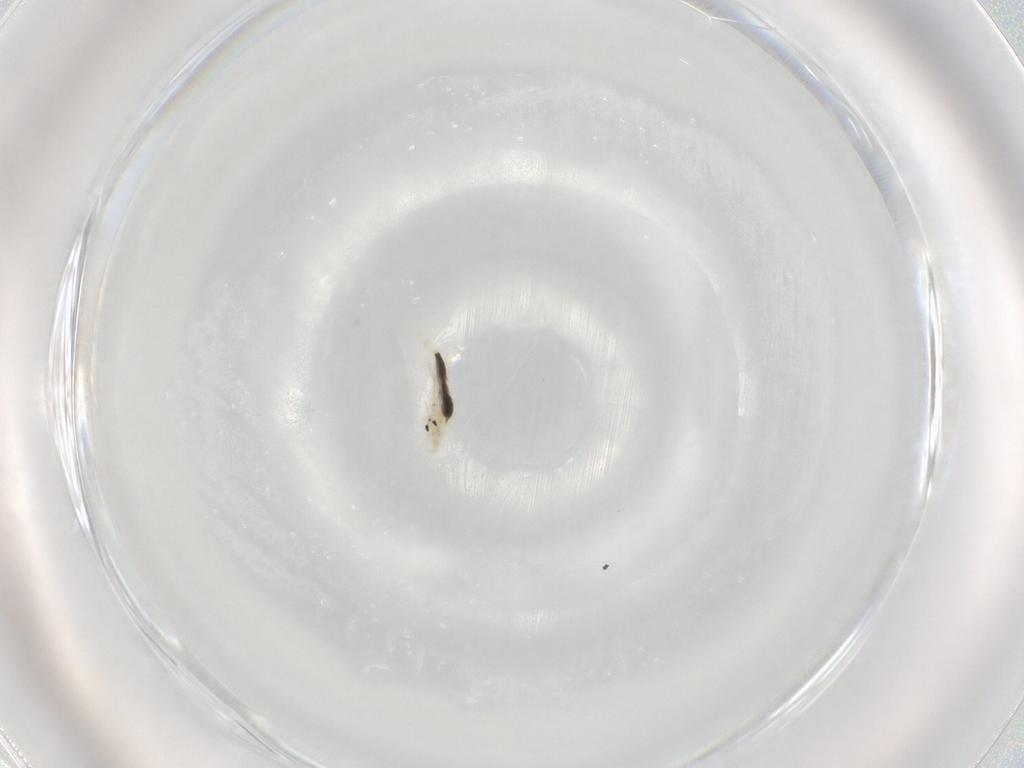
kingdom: Animalia
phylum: Arthropoda
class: Collembola
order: Entomobryomorpha
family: Entomobryidae
